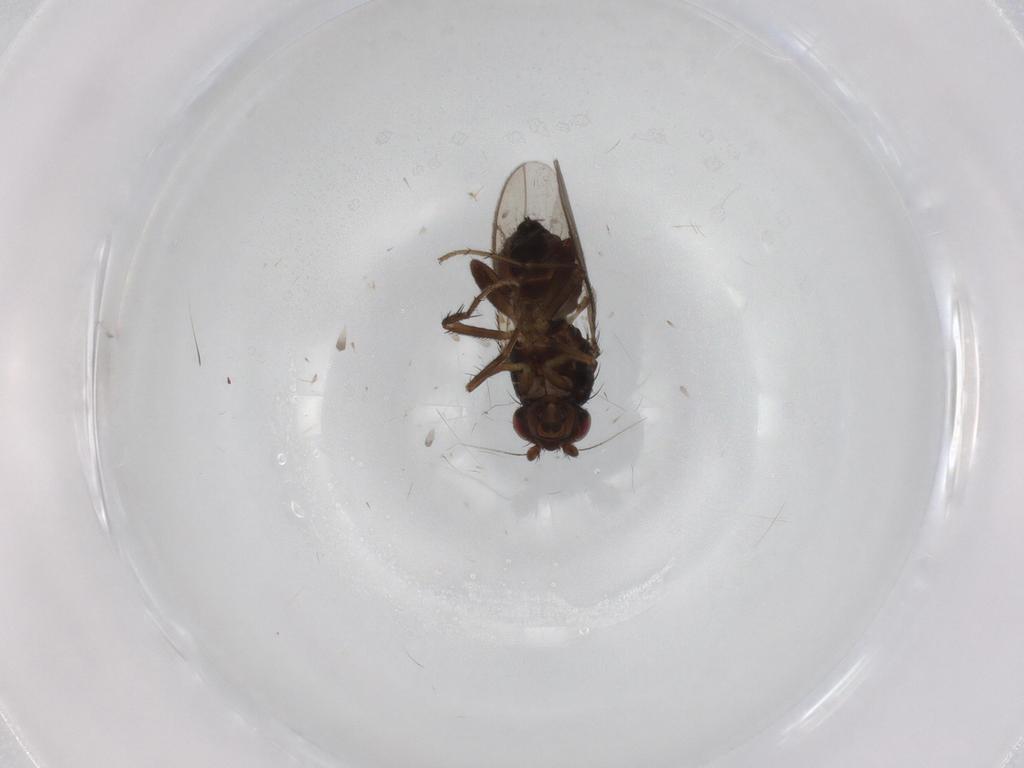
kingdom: Animalia
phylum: Arthropoda
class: Insecta
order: Diptera
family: Sphaeroceridae
